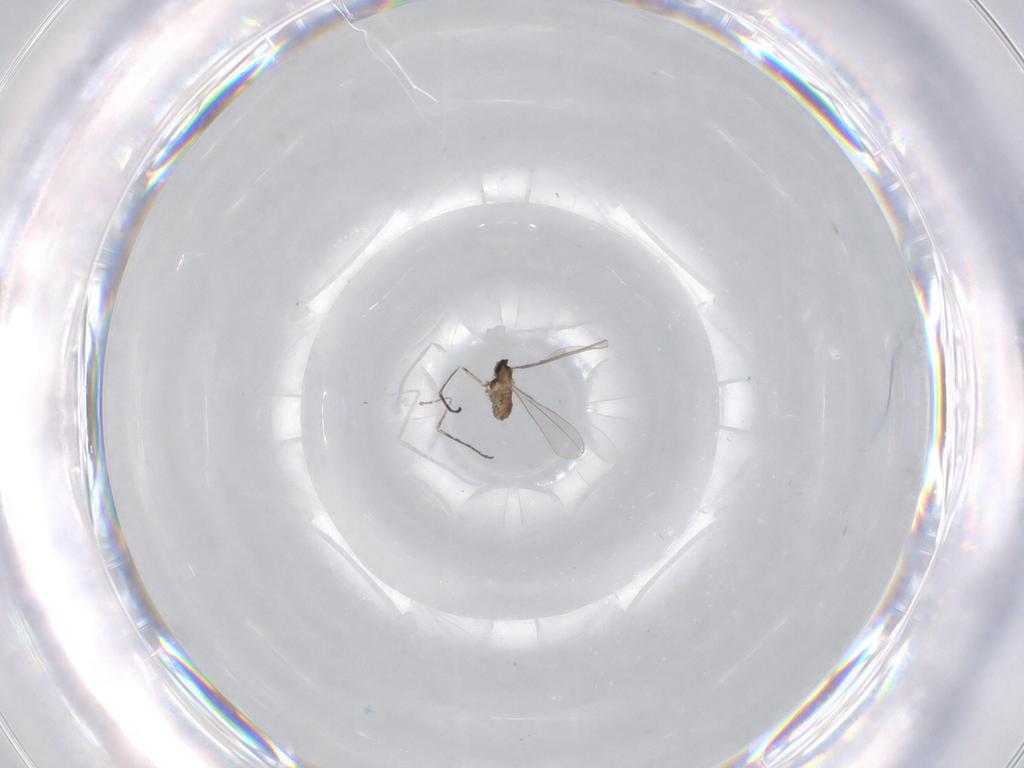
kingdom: Animalia
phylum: Arthropoda
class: Insecta
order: Diptera
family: Cecidomyiidae
